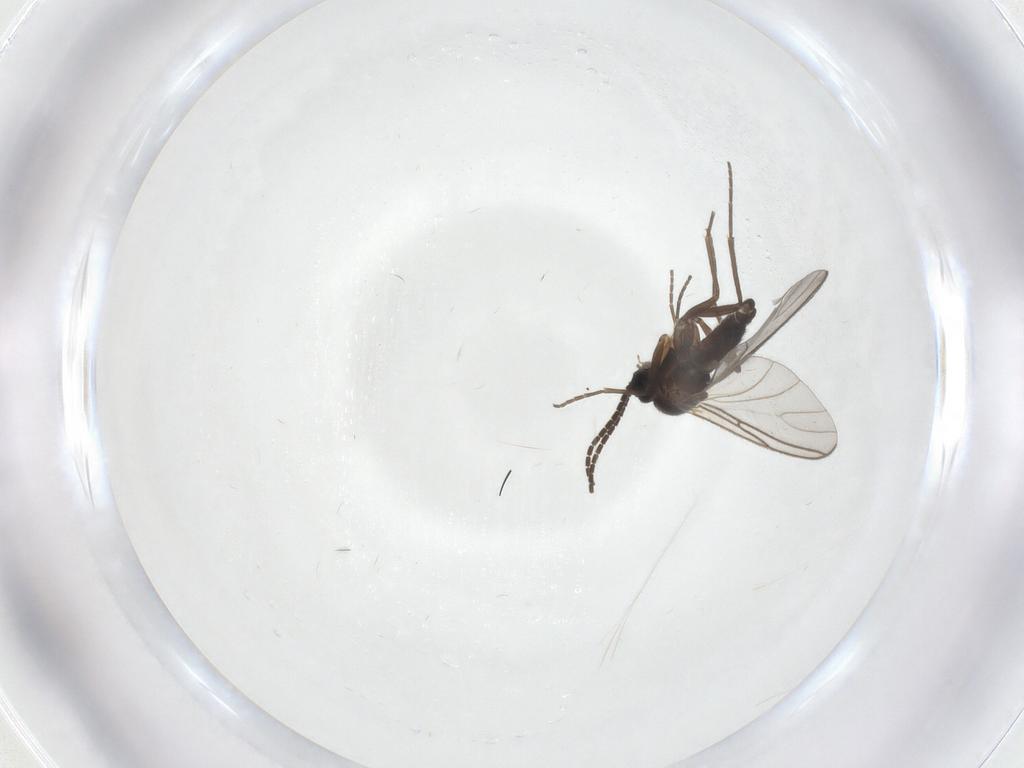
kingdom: Animalia
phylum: Arthropoda
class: Insecta
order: Diptera
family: Sciaridae
